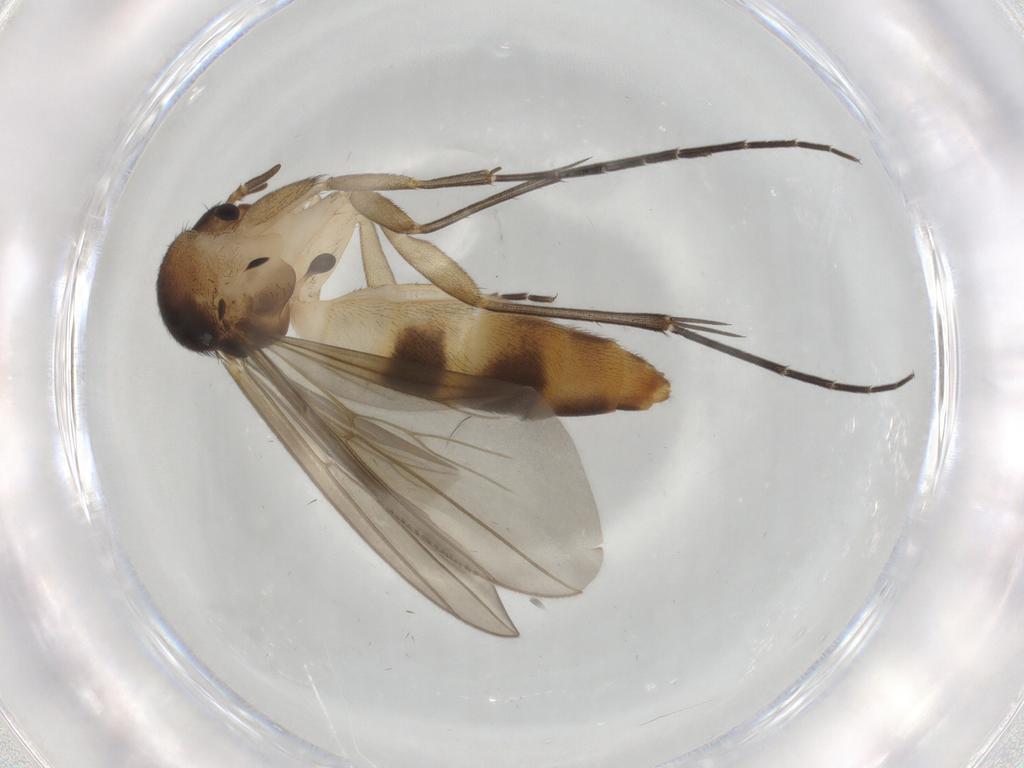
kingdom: Animalia
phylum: Arthropoda
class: Insecta
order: Diptera
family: Mycetophilidae
